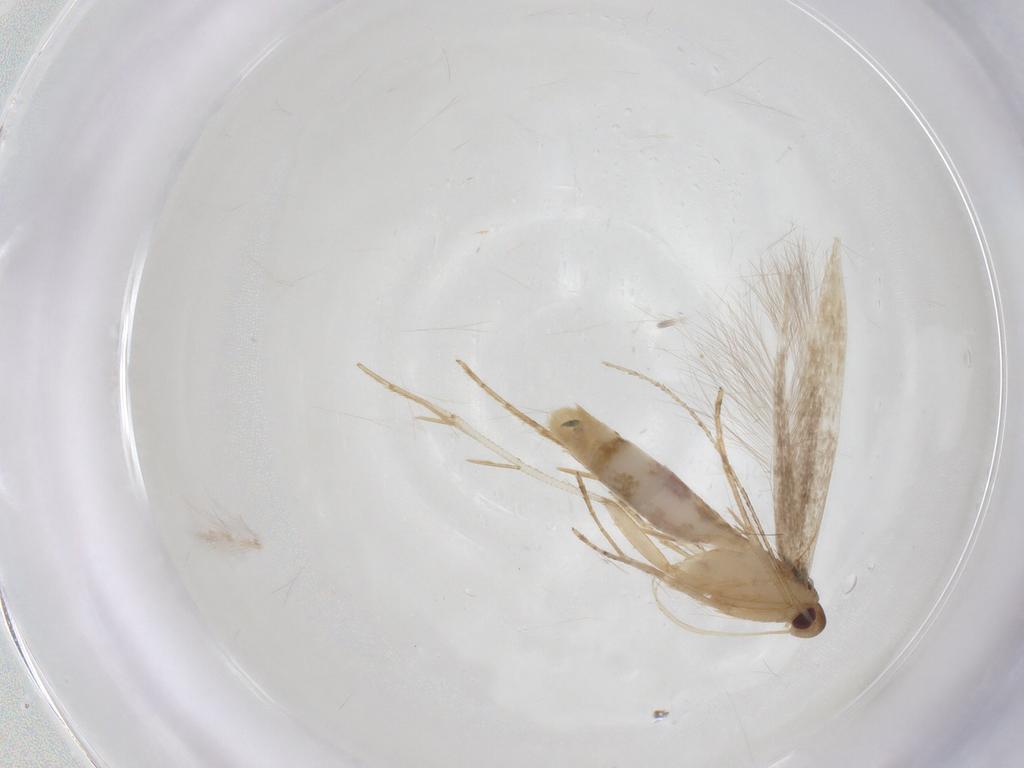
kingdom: Animalia
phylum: Arthropoda
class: Insecta
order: Lepidoptera
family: Cosmopterigidae
